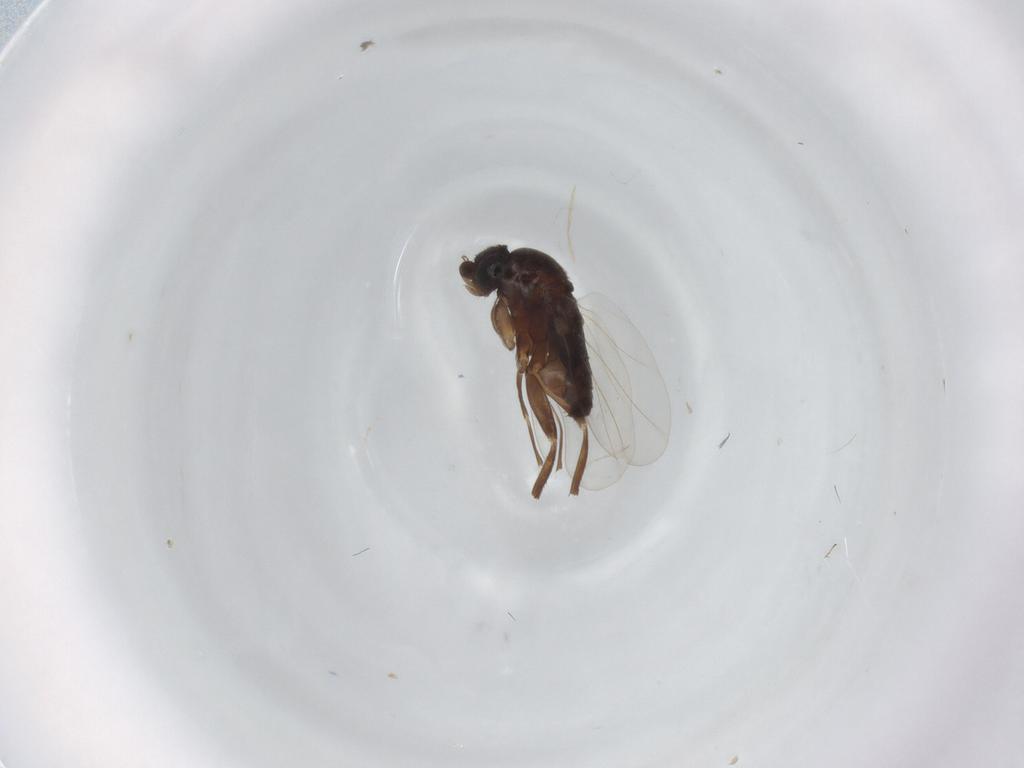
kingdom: Animalia
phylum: Arthropoda
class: Insecta
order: Diptera
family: Phoridae
